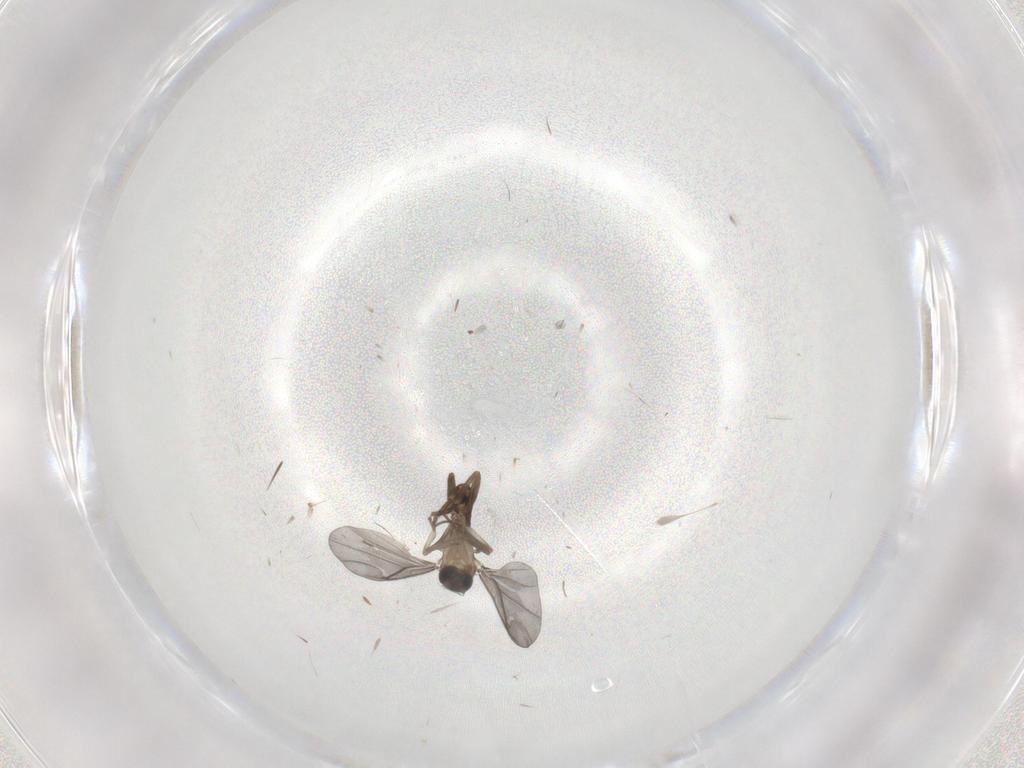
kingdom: Animalia
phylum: Arthropoda
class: Insecta
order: Diptera
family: Phoridae
